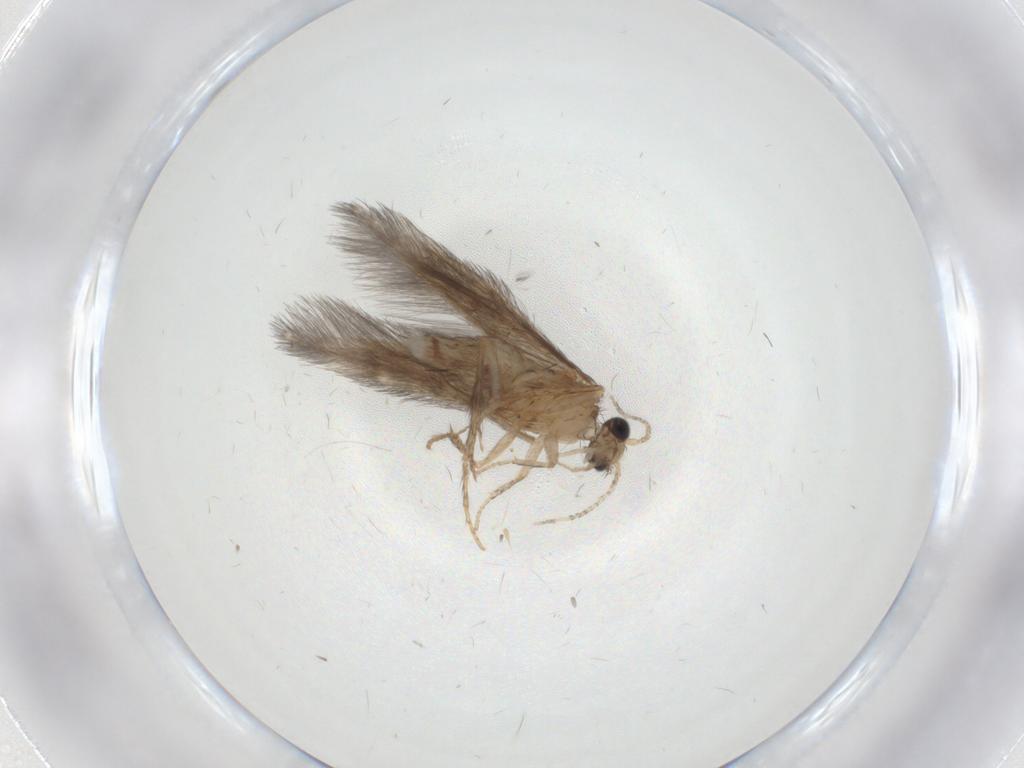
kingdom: Animalia
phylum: Arthropoda
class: Insecta
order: Trichoptera
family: Hydroptilidae
